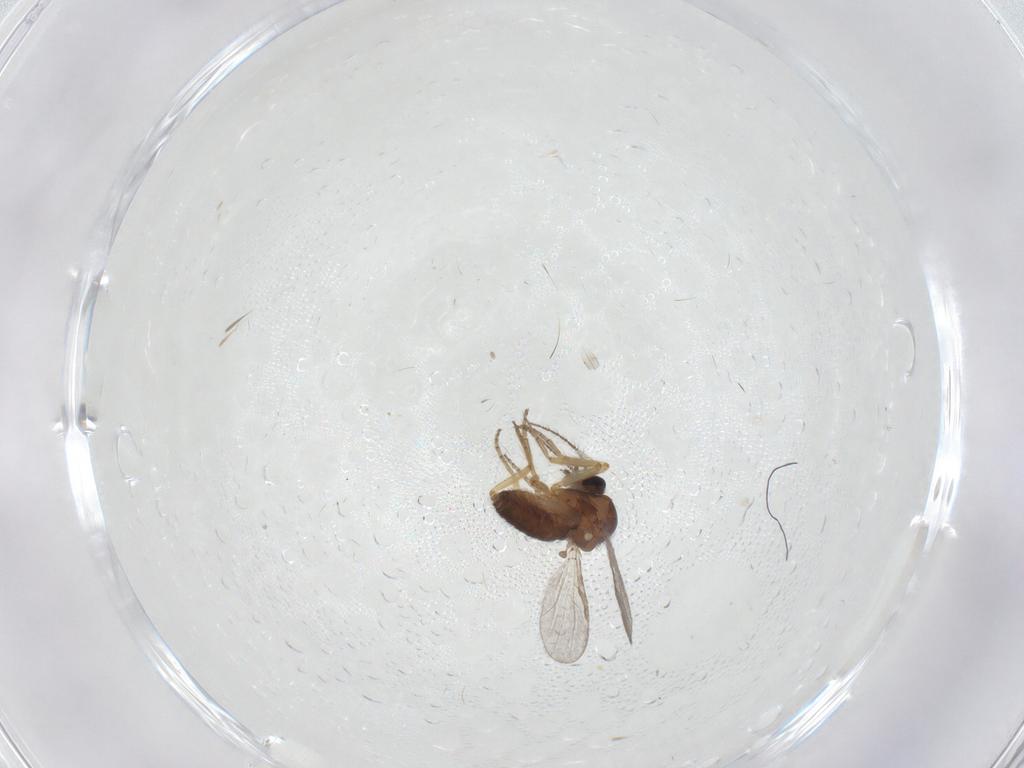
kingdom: Animalia
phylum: Arthropoda
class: Insecta
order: Diptera
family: Ceratopogonidae
